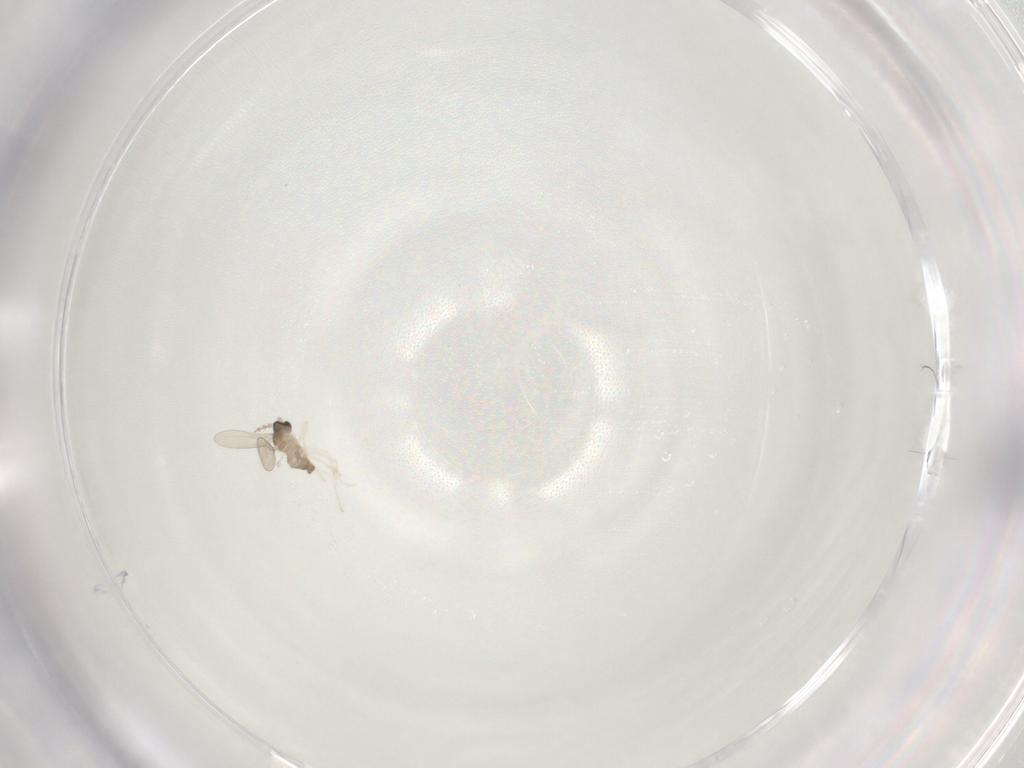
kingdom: Animalia
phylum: Arthropoda
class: Insecta
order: Diptera
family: Cecidomyiidae
